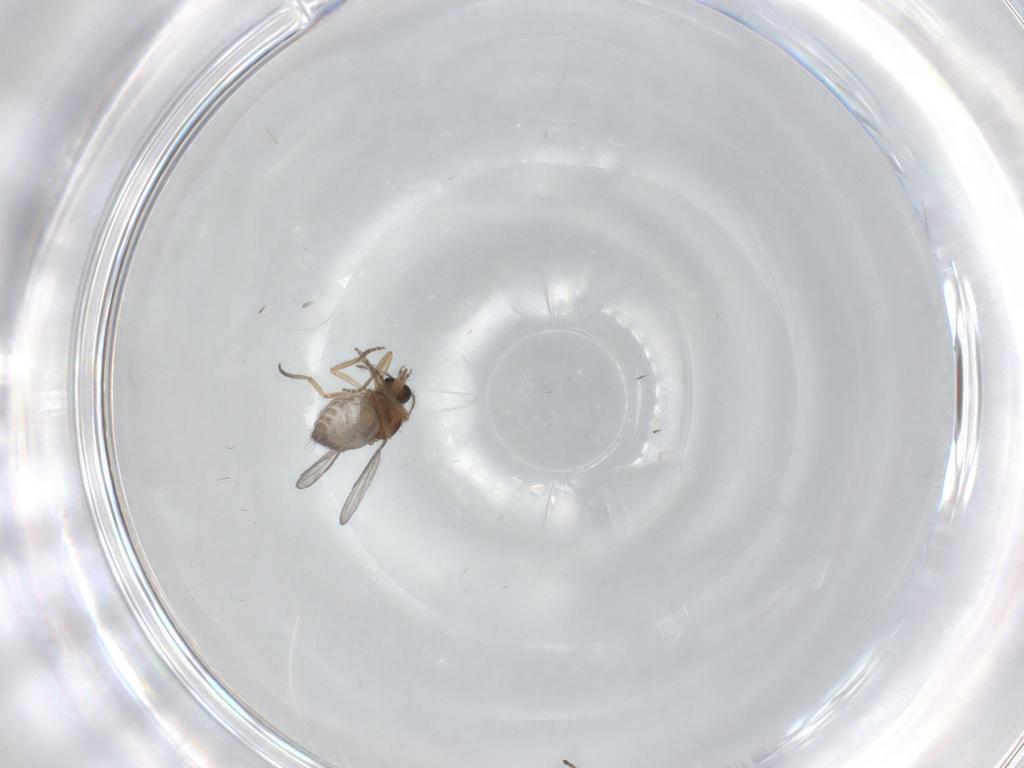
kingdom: Animalia
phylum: Arthropoda
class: Insecta
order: Diptera
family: Ceratopogonidae
